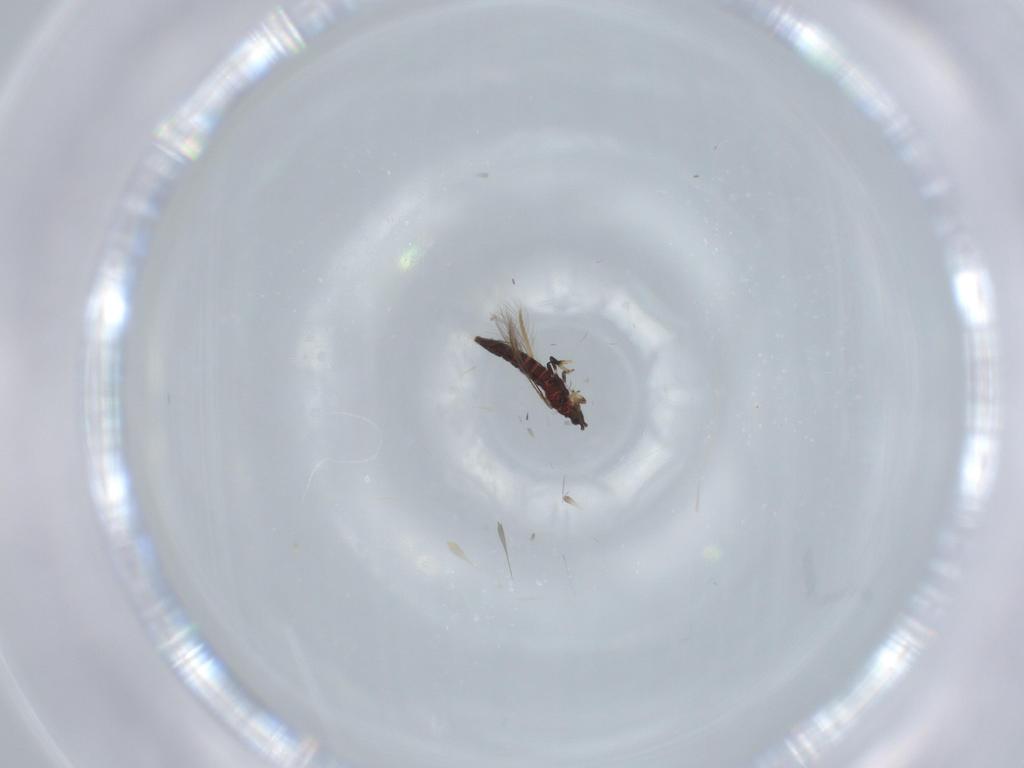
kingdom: Animalia
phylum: Arthropoda
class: Insecta
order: Thysanoptera
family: Thripidae
